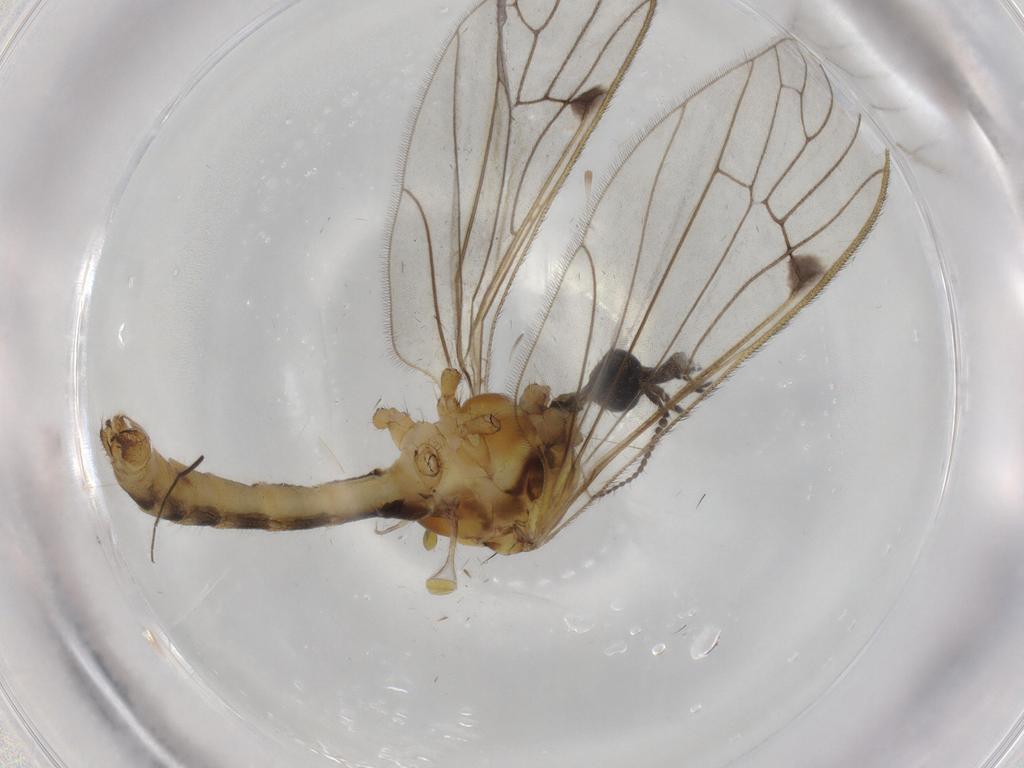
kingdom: Animalia
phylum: Arthropoda
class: Insecta
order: Diptera
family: Limoniidae
